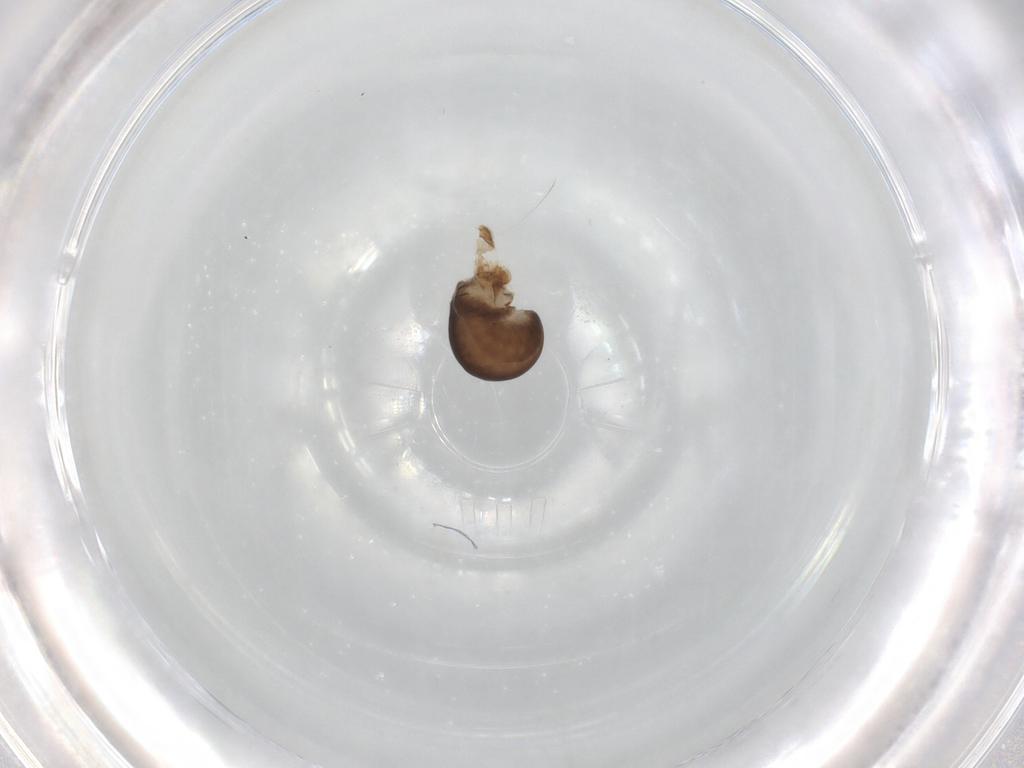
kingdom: Animalia
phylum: Arthropoda
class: Insecta
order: Hymenoptera
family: Dryinidae
